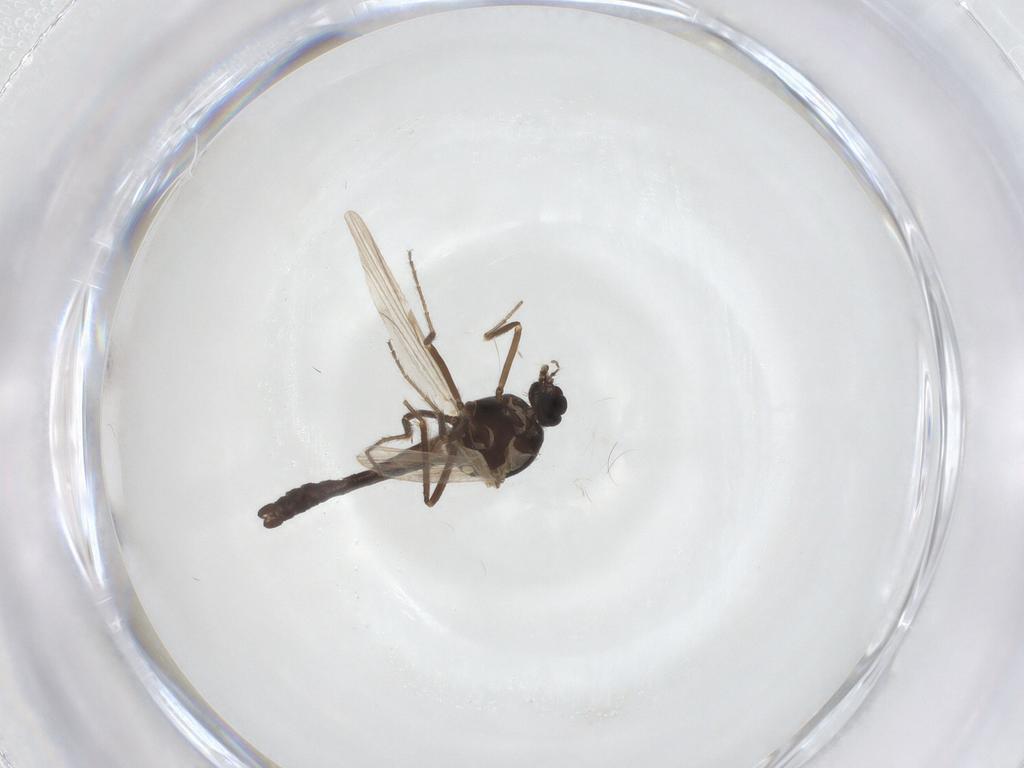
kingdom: Animalia
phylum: Arthropoda
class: Insecta
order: Diptera
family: Ceratopogonidae
